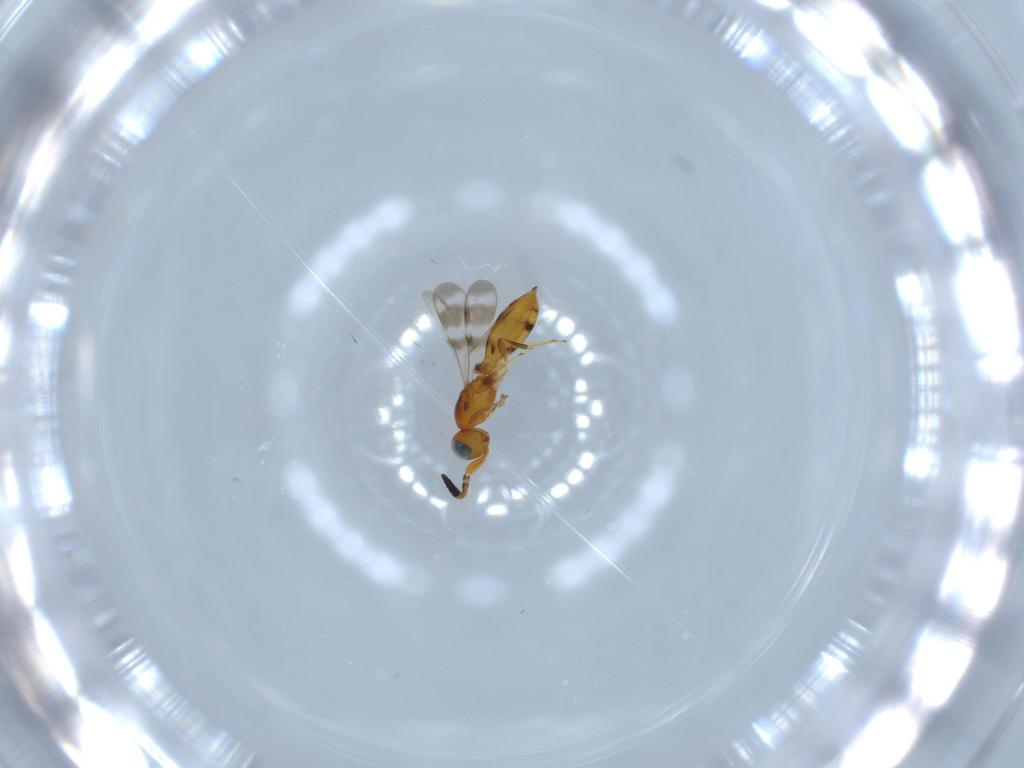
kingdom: Animalia
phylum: Arthropoda
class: Insecta
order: Hymenoptera
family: Scelionidae
